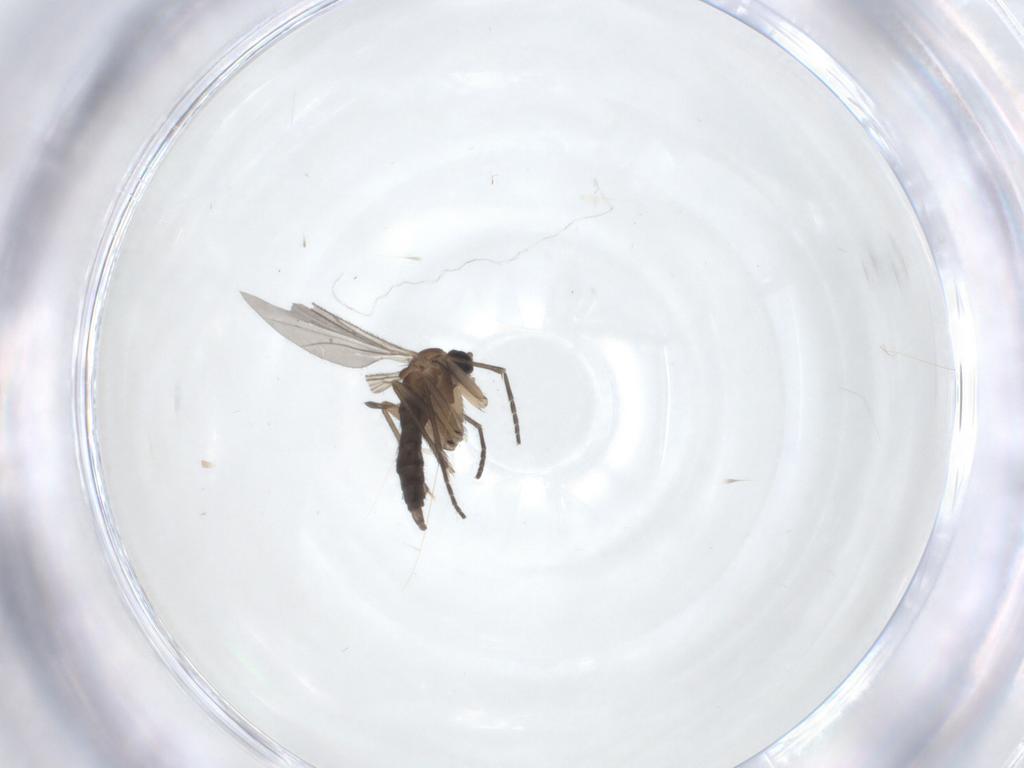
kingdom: Animalia
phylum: Arthropoda
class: Insecta
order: Diptera
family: Sciaridae
